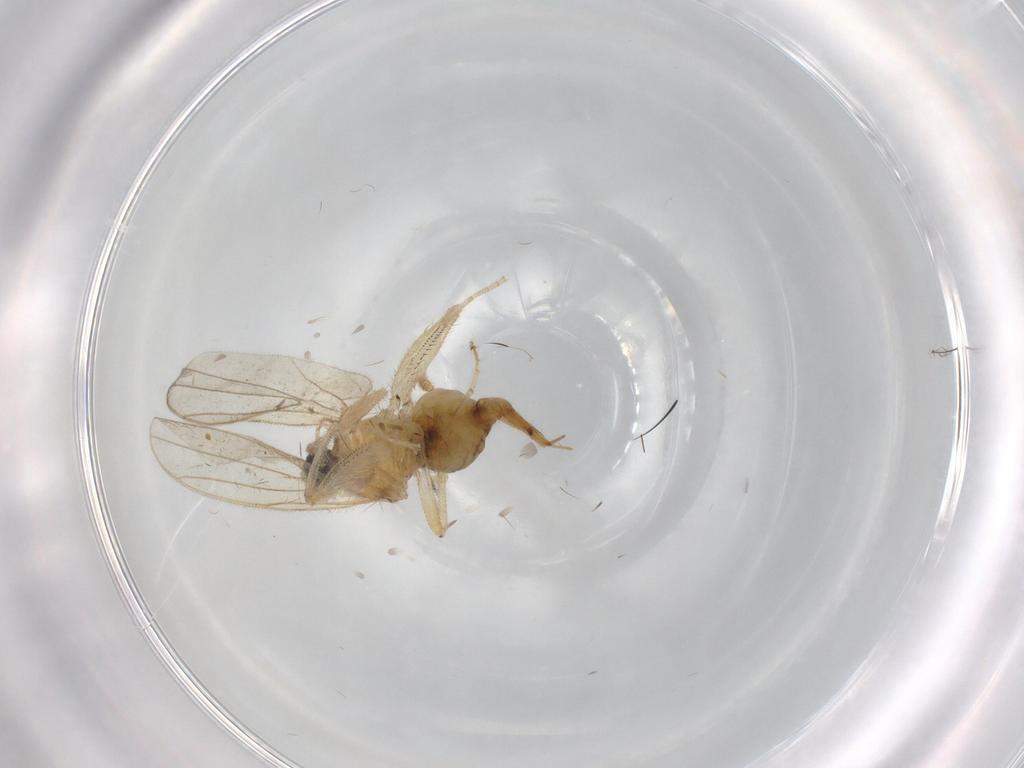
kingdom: Animalia
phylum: Arthropoda
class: Insecta
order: Diptera
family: Hybotidae
